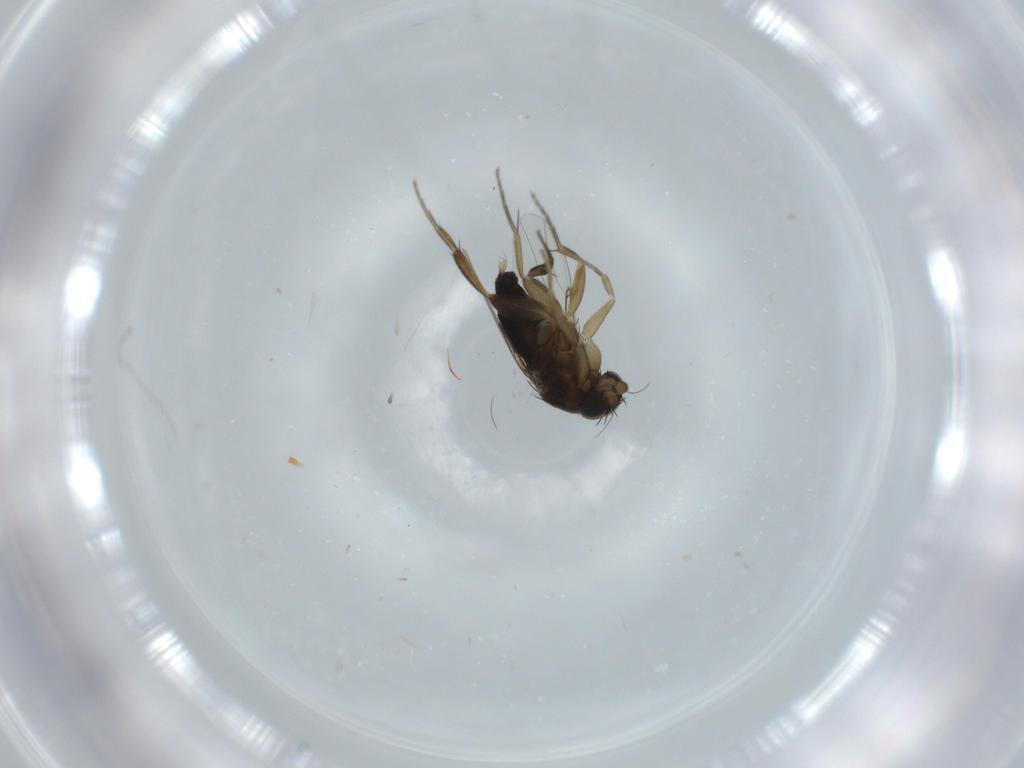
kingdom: Animalia
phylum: Arthropoda
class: Insecta
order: Diptera
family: Phoridae
